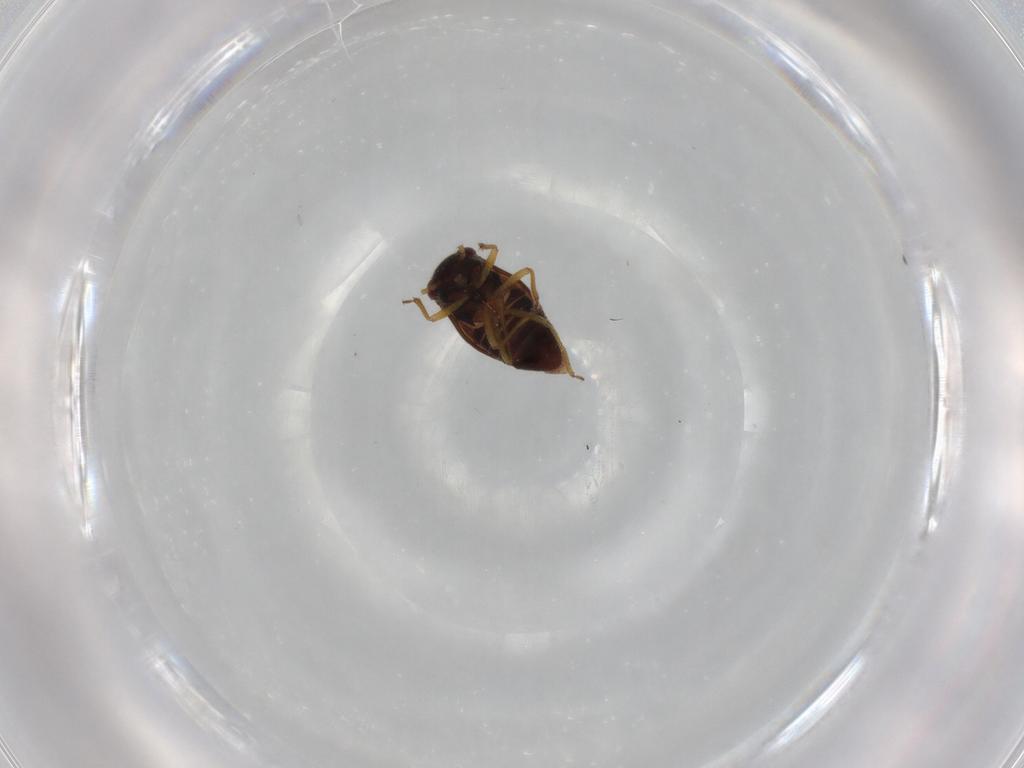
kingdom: Animalia
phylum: Arthropoda
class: Insecta
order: Hemiptera
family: Schizopteridae
